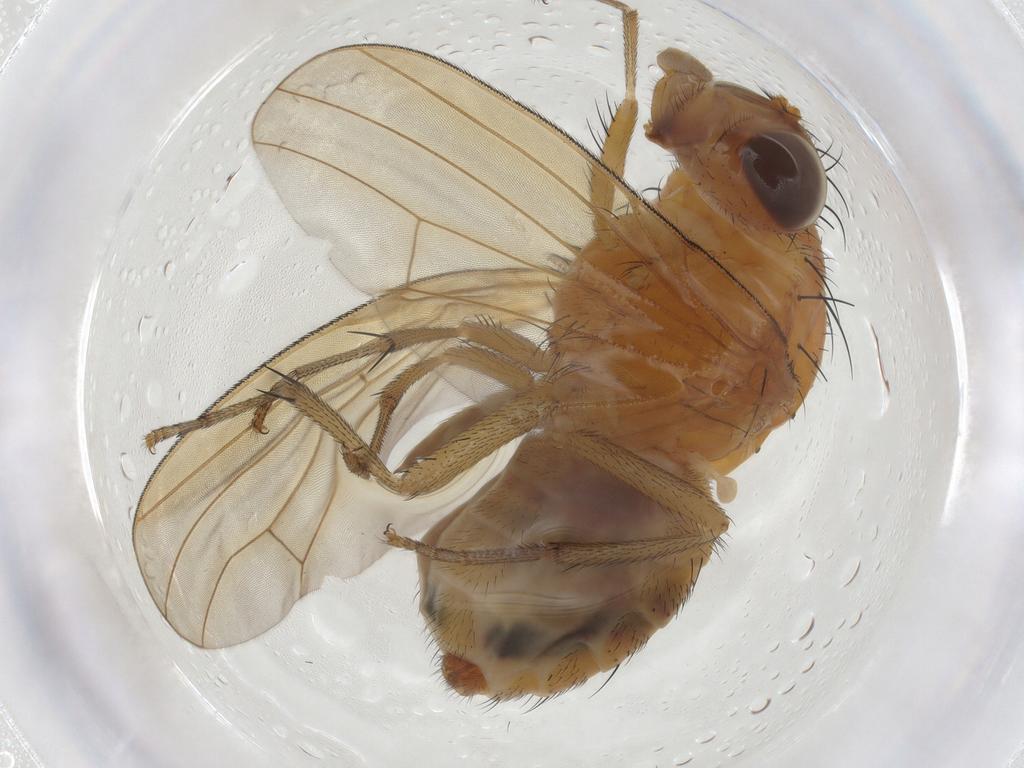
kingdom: Animalia
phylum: Arthropoda
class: Insecta
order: Diptera
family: Sciaridae
